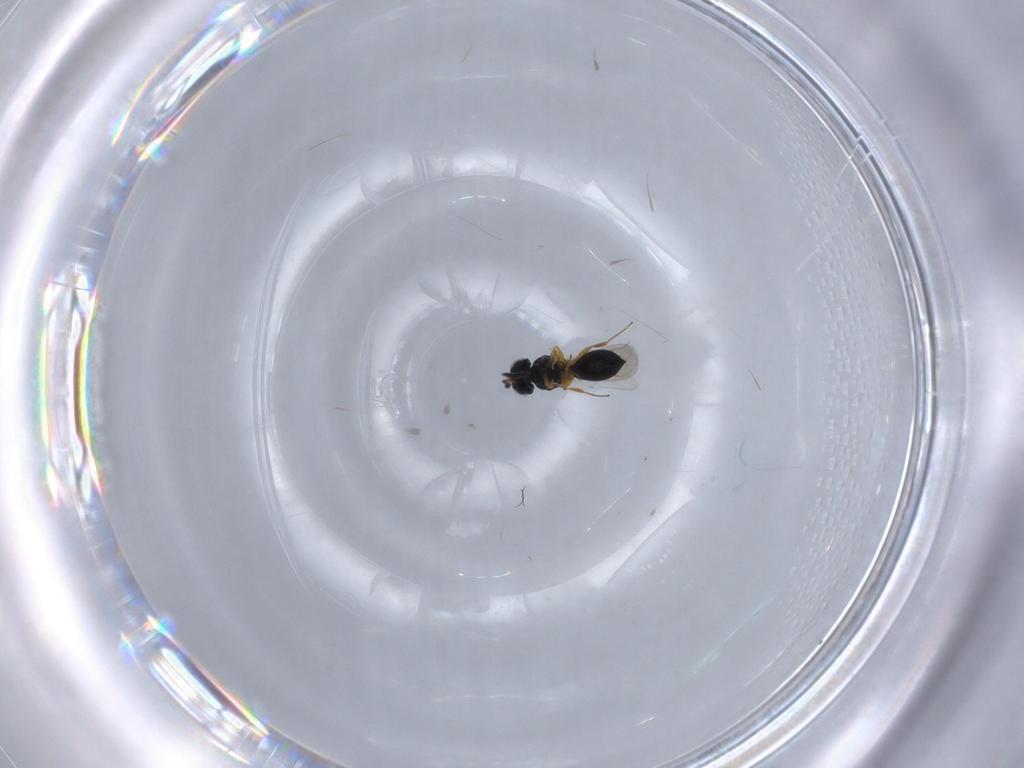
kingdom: Animalia
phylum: Arthropoda
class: Insecta
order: Hymenoptera
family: Scelionidae
